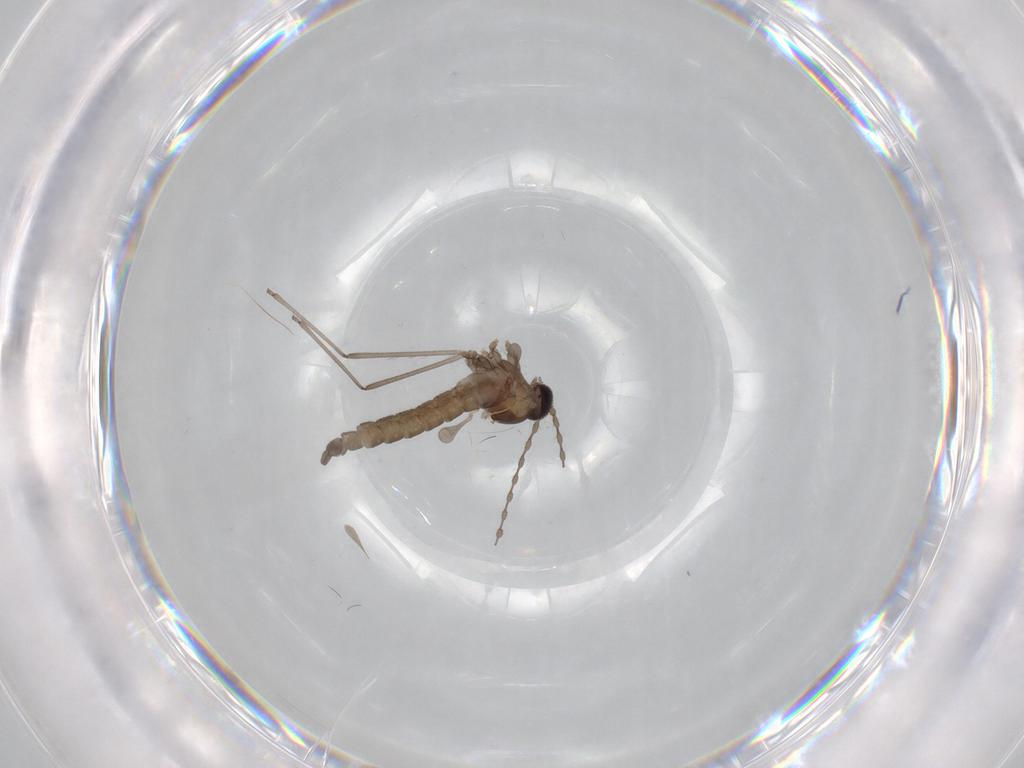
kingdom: Animalia
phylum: Arthropoda
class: Insecta
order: Diptera
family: Cecidomyiidae
